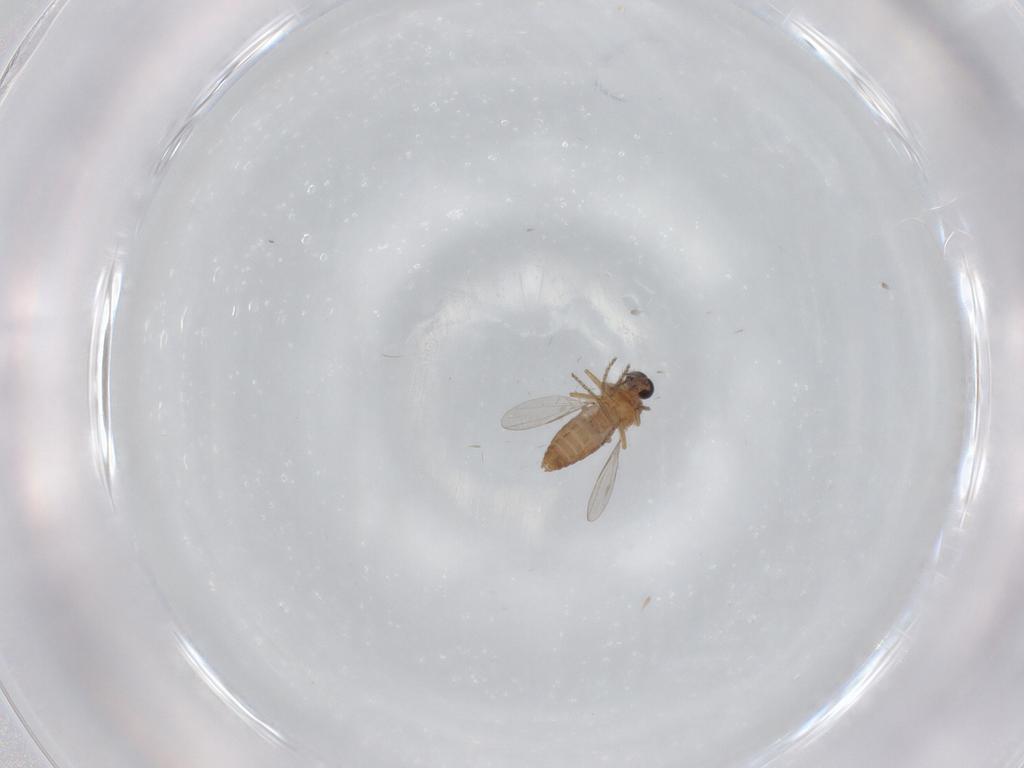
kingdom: Animalia
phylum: Arthropoda
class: Insecta
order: Diptera
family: Ceratopogonidae
